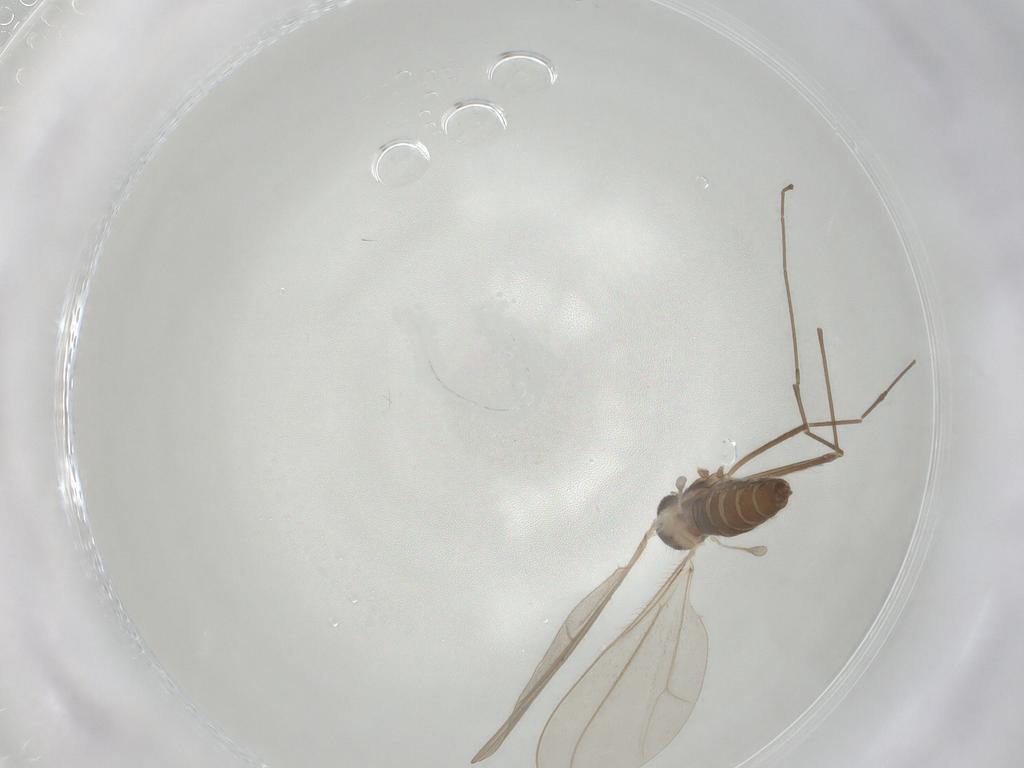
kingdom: Animalia
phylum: Arthropoda
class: Insecta
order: Diptera
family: Cecidomyiidae
